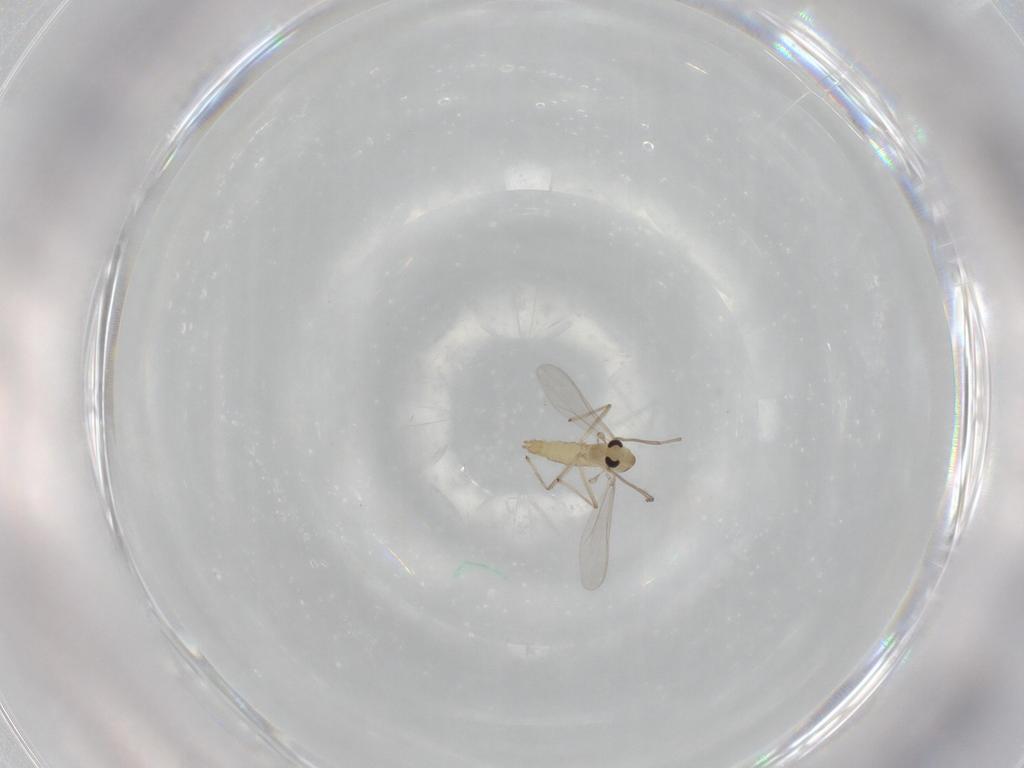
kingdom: Animalia
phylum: Arthropoda
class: Insecta
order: Diptera
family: Chironomidae
